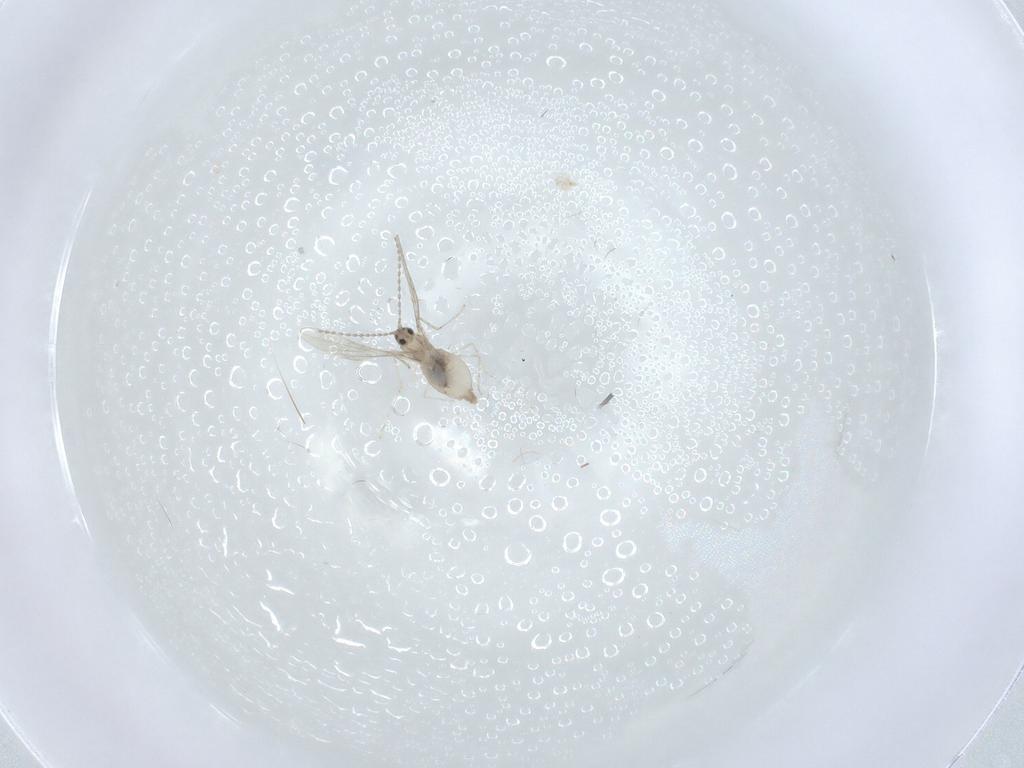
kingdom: Animalia
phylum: Arthropoda
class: Insecta
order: Diptera
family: Cecidomyiidae
